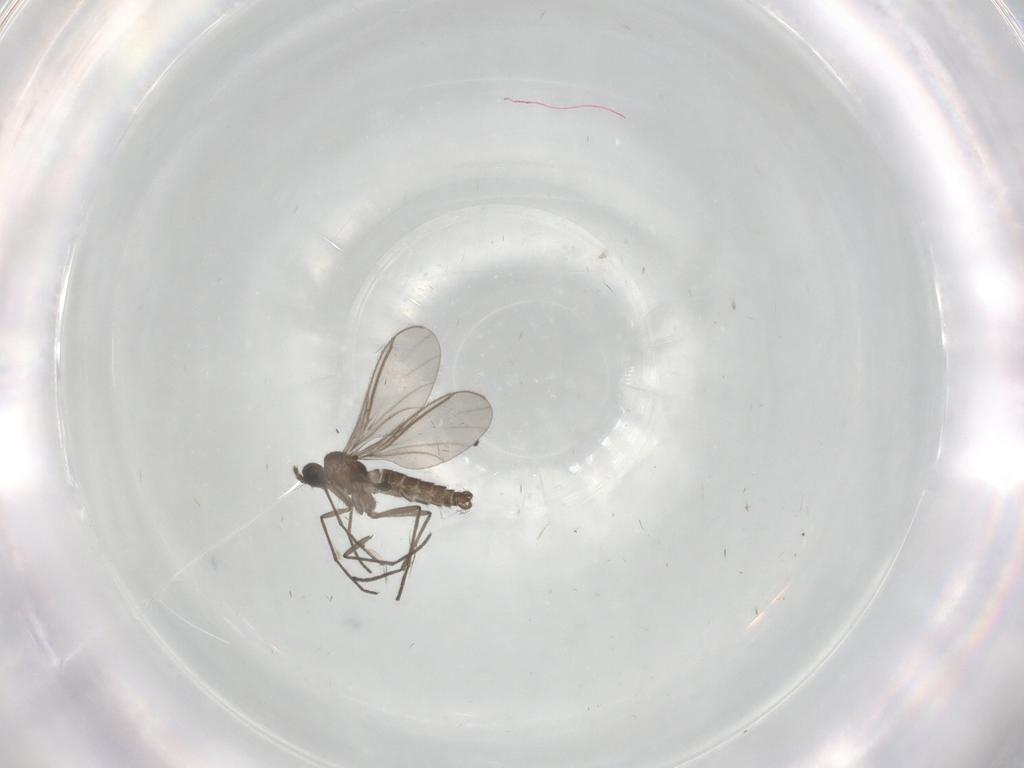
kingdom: Animalia
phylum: Arthropoda
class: Insecta
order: Diptera
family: Sciaridae
